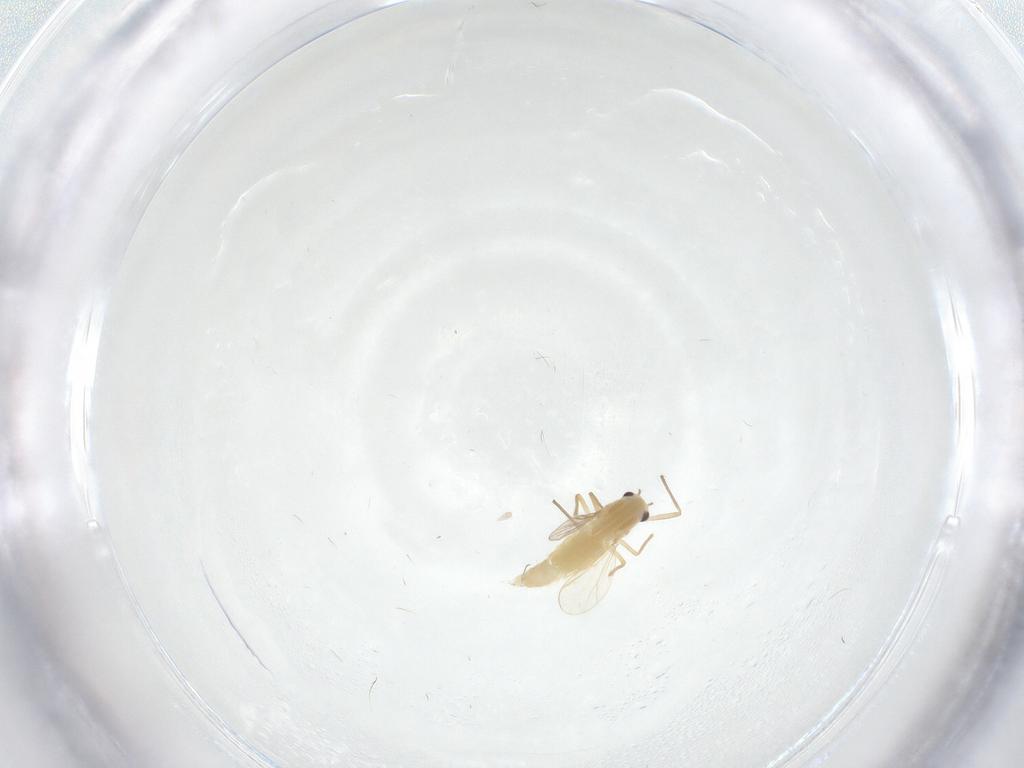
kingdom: Animalia
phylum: Arthropoda
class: Insecta
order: Diptera
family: Chironomidae
